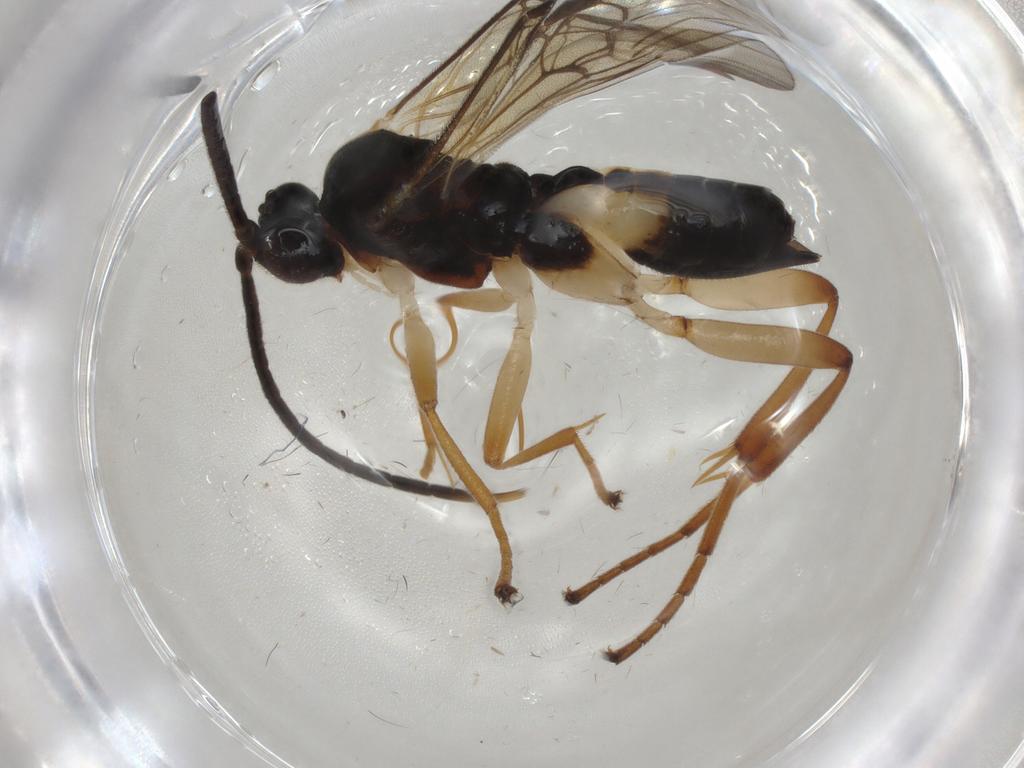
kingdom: Animalia
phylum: Arthropoda
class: Insecta
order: Hymenoptera
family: Braconidae
